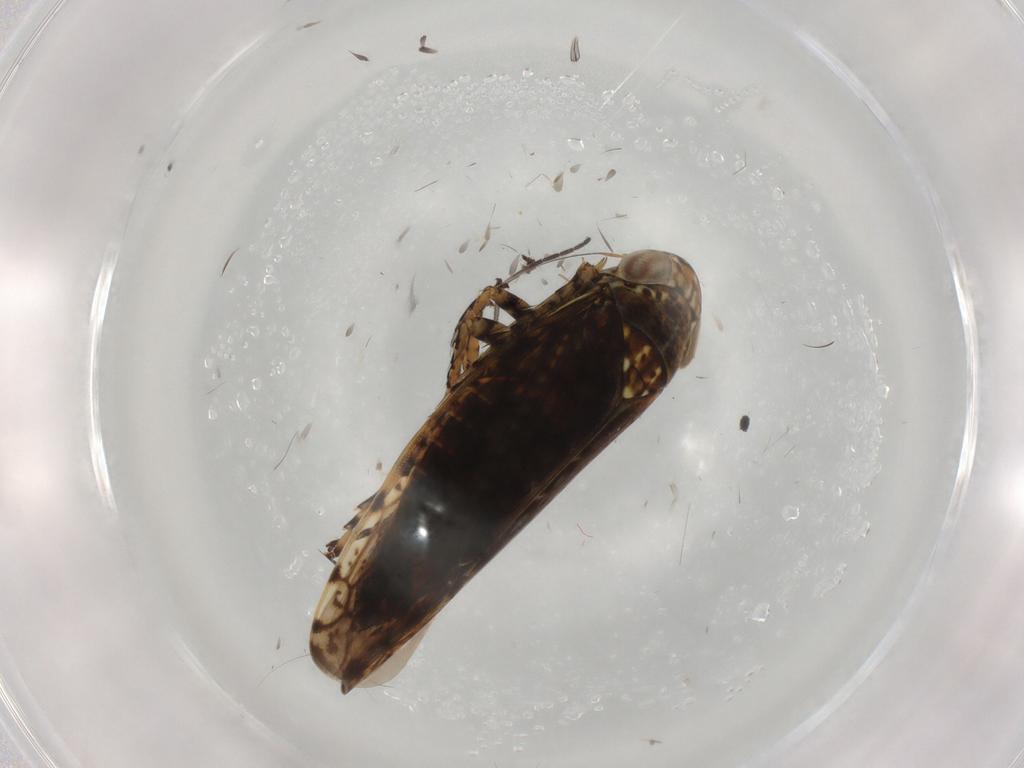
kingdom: Animalia
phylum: Arthropoda
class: Insecta
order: Hemiptera
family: Cicadellidae
